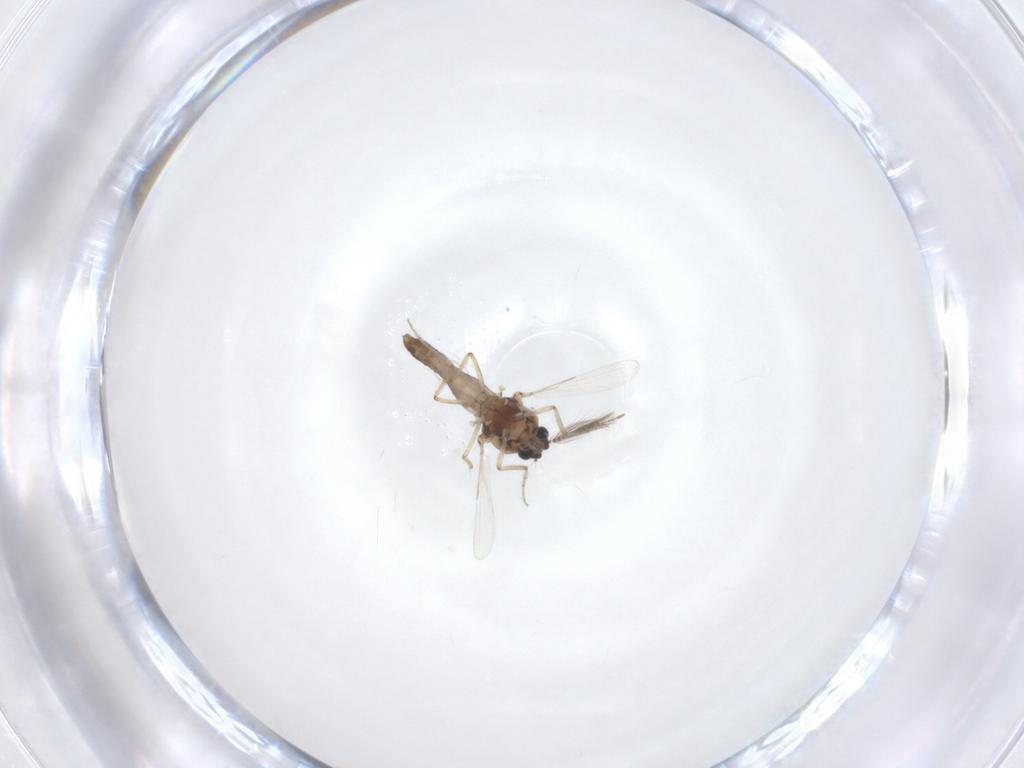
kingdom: Animalia
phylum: Arthropoda
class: Insecta
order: Diptera
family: Ceratopogonidae
